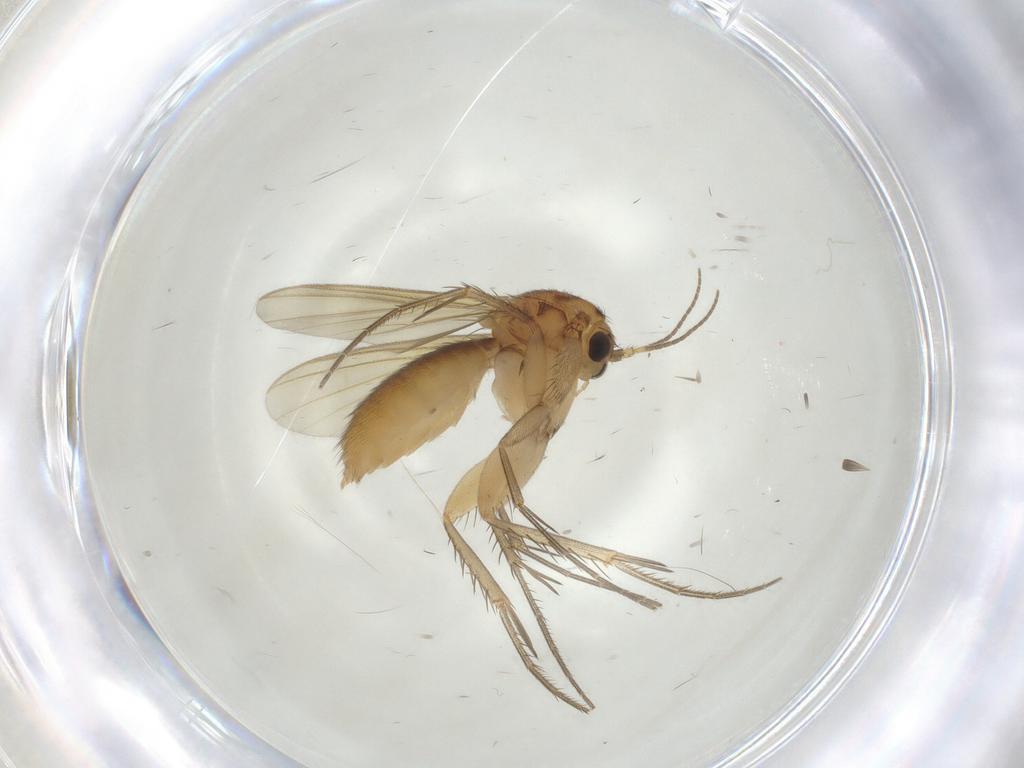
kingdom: Animalia
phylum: Arthropoda
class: Insecta
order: Diptera
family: Mycetophilidae
